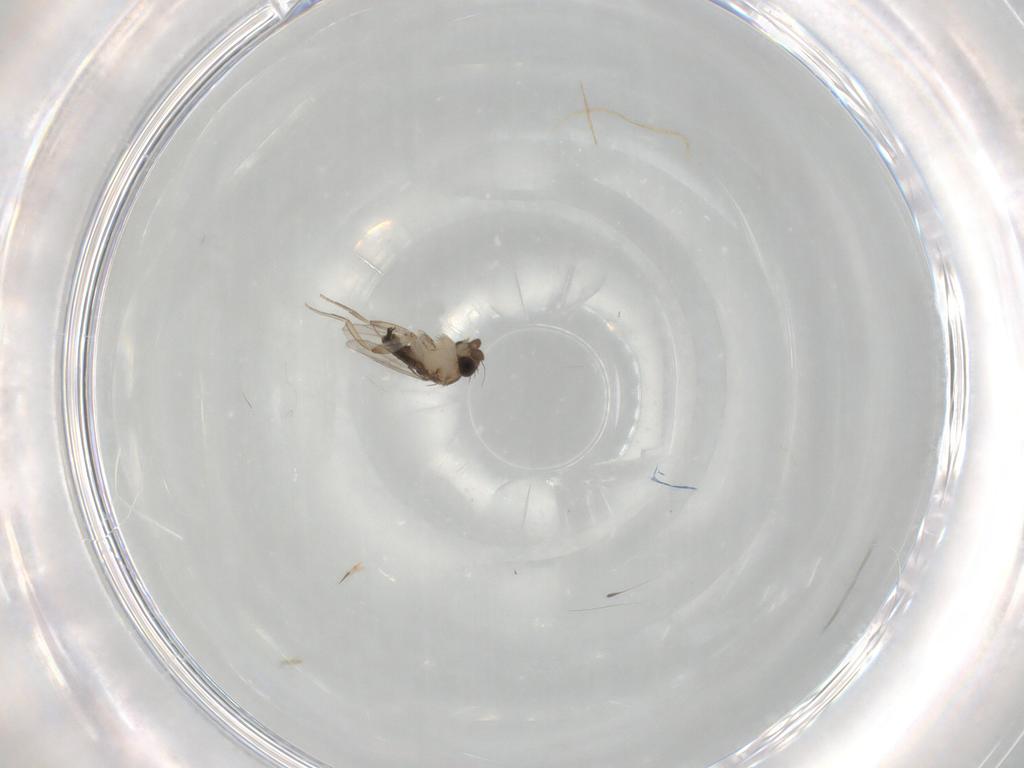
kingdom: Animalia
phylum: Arthropoda
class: Insecta
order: Diptera
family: Phoridae
